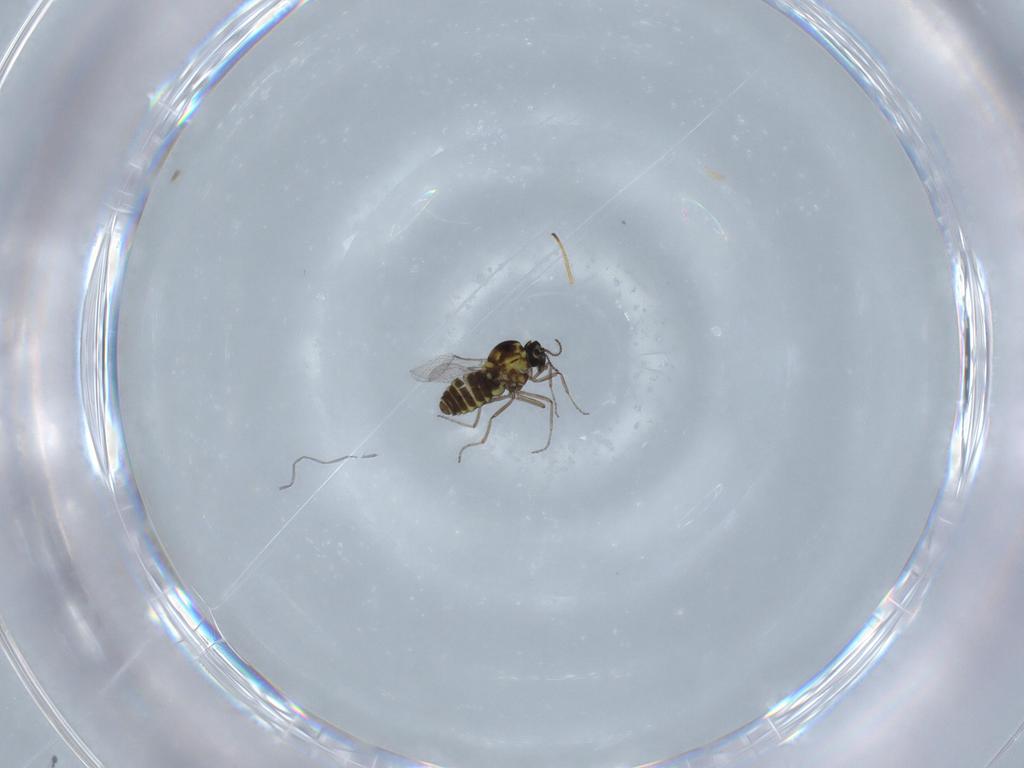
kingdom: Animalia
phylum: Arthropoda
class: Insecta
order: Diptera
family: Ceratopogonidae
